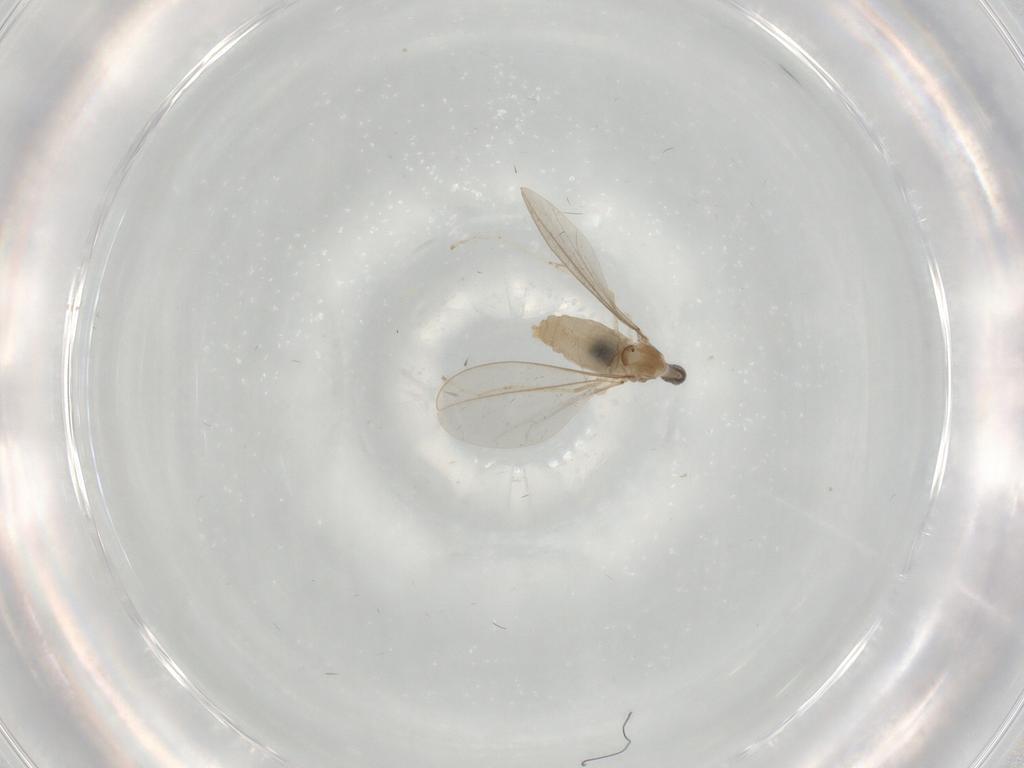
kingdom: Animalia
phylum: Arthropoda
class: Insecta
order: Diptera
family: Cecidomyiidae
